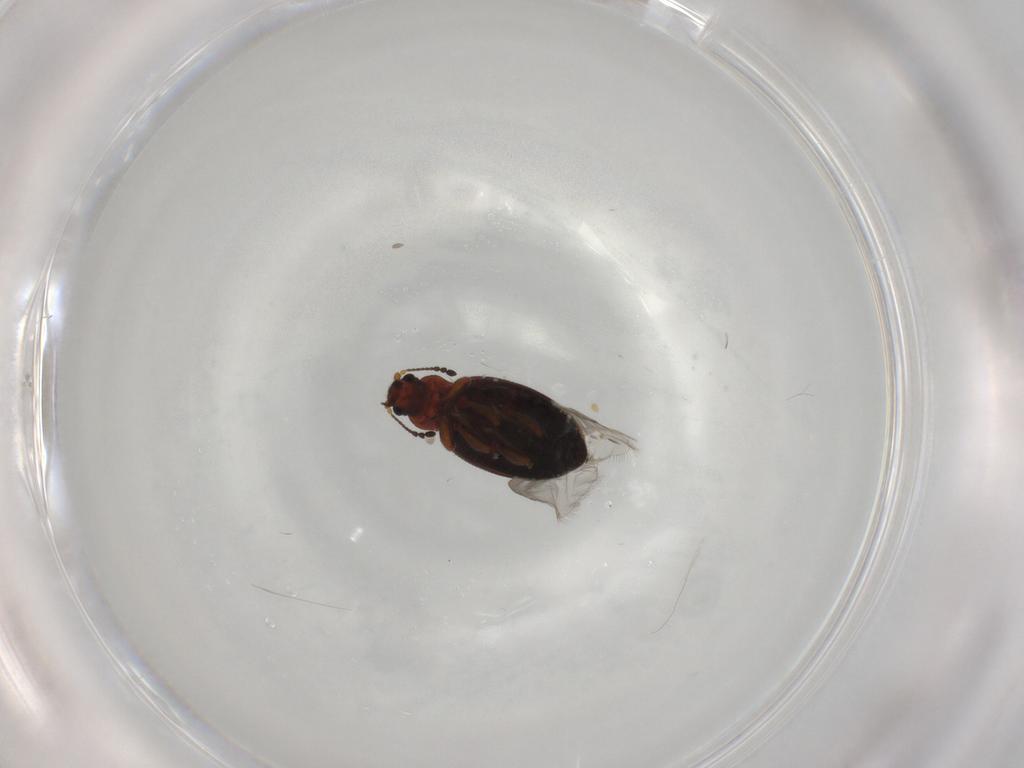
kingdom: Animalia
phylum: Arthropoda
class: Insecta
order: Coleoptera
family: Latridiidae
